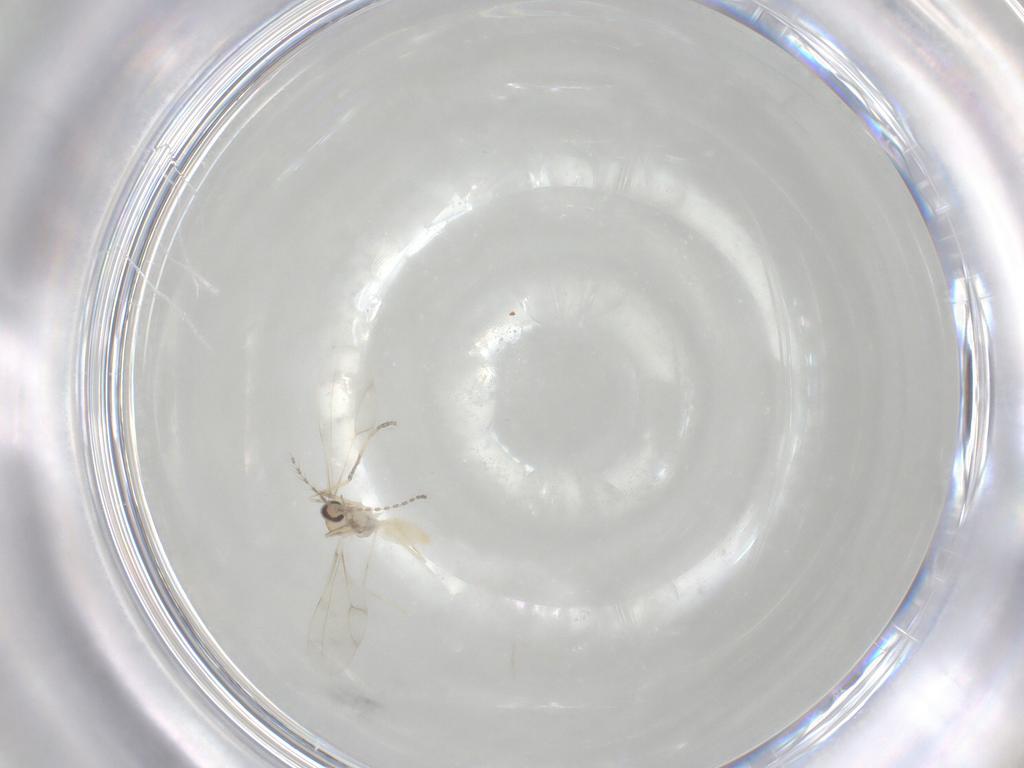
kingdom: Animalia
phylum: Arthropoda
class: Insecta
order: Diptera
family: Cecidomyiidae
